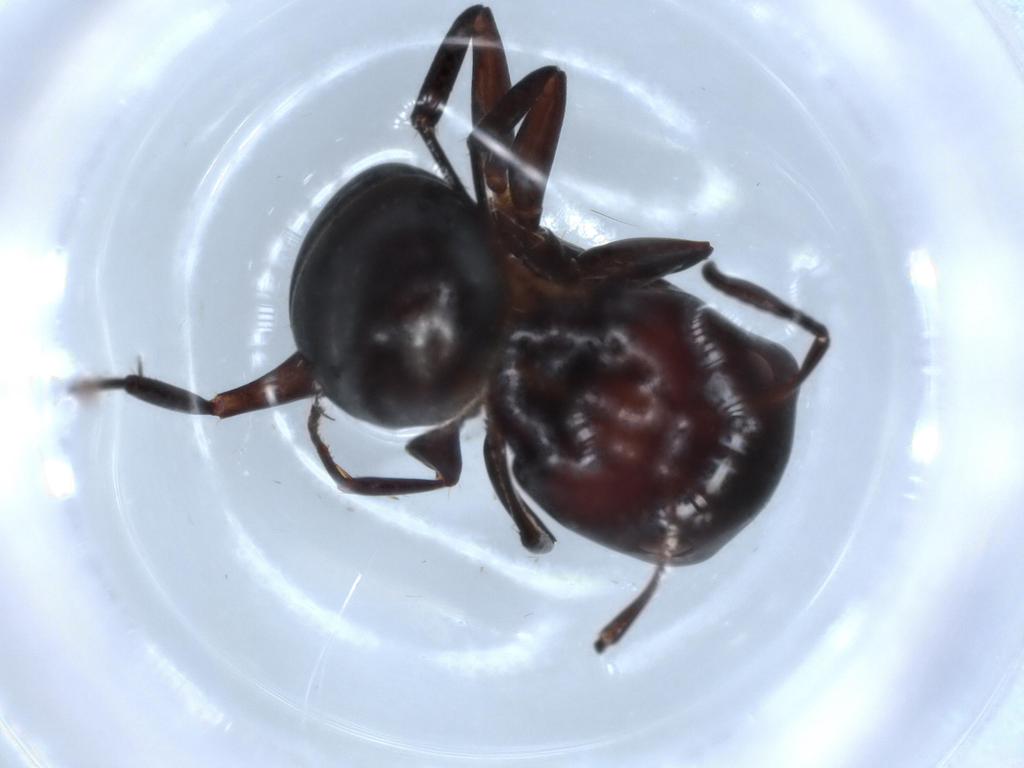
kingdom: Animalia
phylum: Arthropoda
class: Insecta
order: Hymenoptera
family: Formicidae
